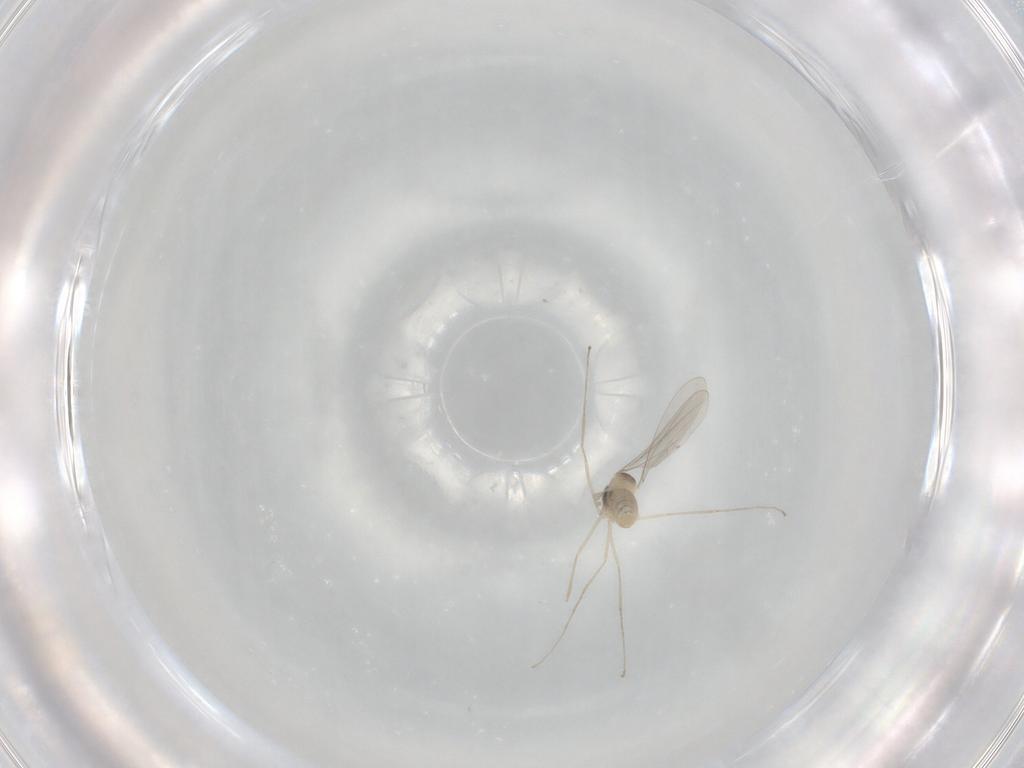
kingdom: Animalia
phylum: Arthropoda
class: Insecta
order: Diptera
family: Cecidomyiidae
